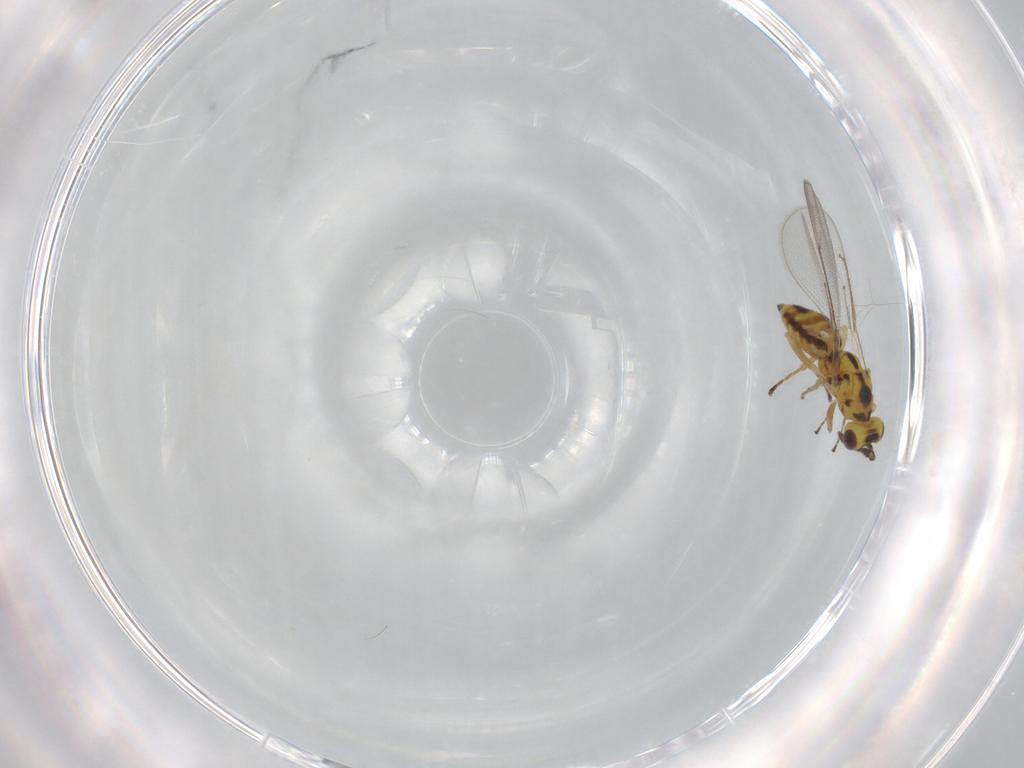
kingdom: Animalia
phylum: Arthropoda
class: Insecta
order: Hymenoptera
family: Eulophidae
